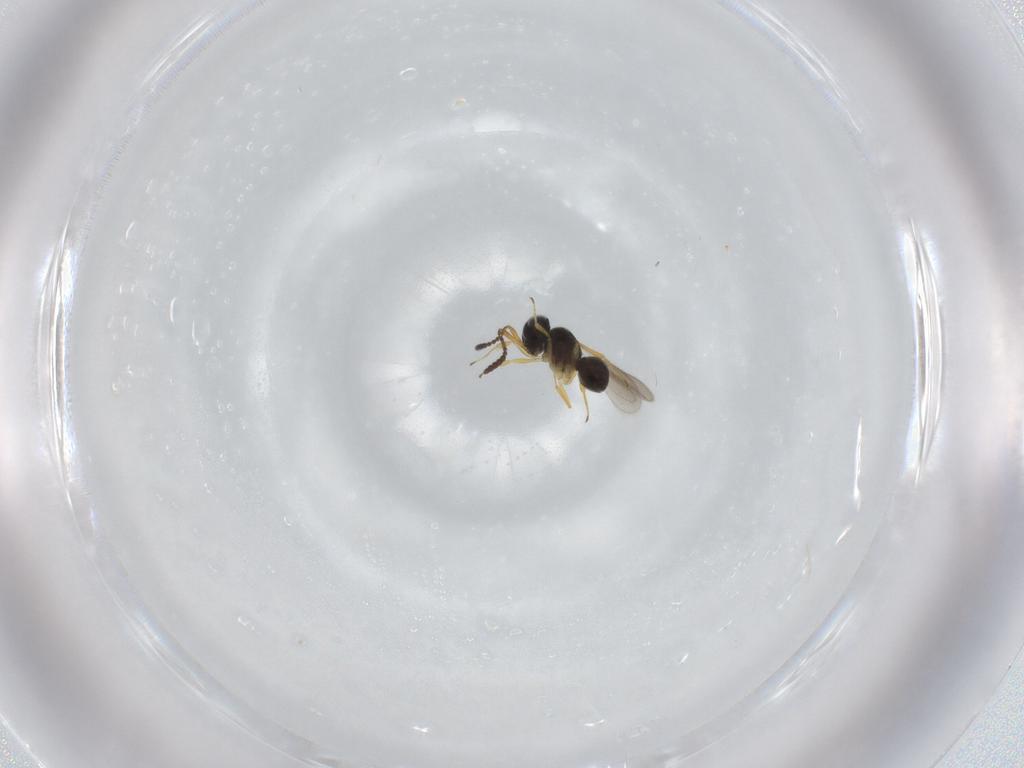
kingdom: Animalia
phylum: Arthropoda
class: Insecta
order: Hymenoptera
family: Scelionidae
